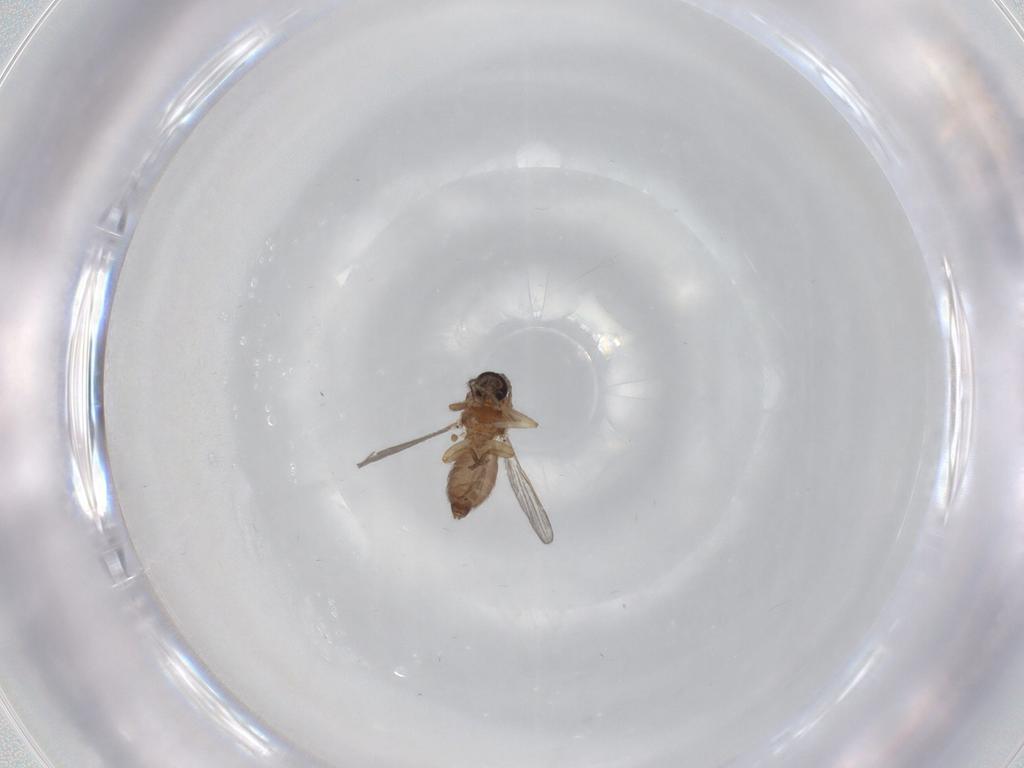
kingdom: Animalia
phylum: Arthropoda
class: Insecta
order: Diptera
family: Ceratopogonidae
